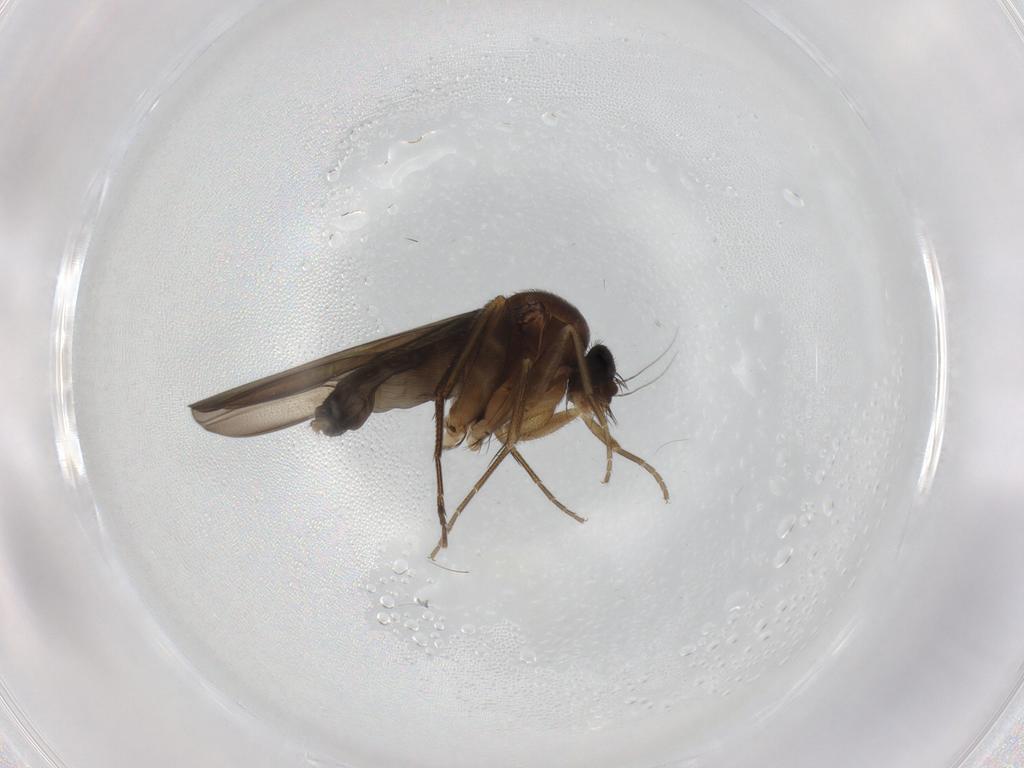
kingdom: Animalia
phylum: Arthropoda
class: Insecta
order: Diptera
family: Phoridae
